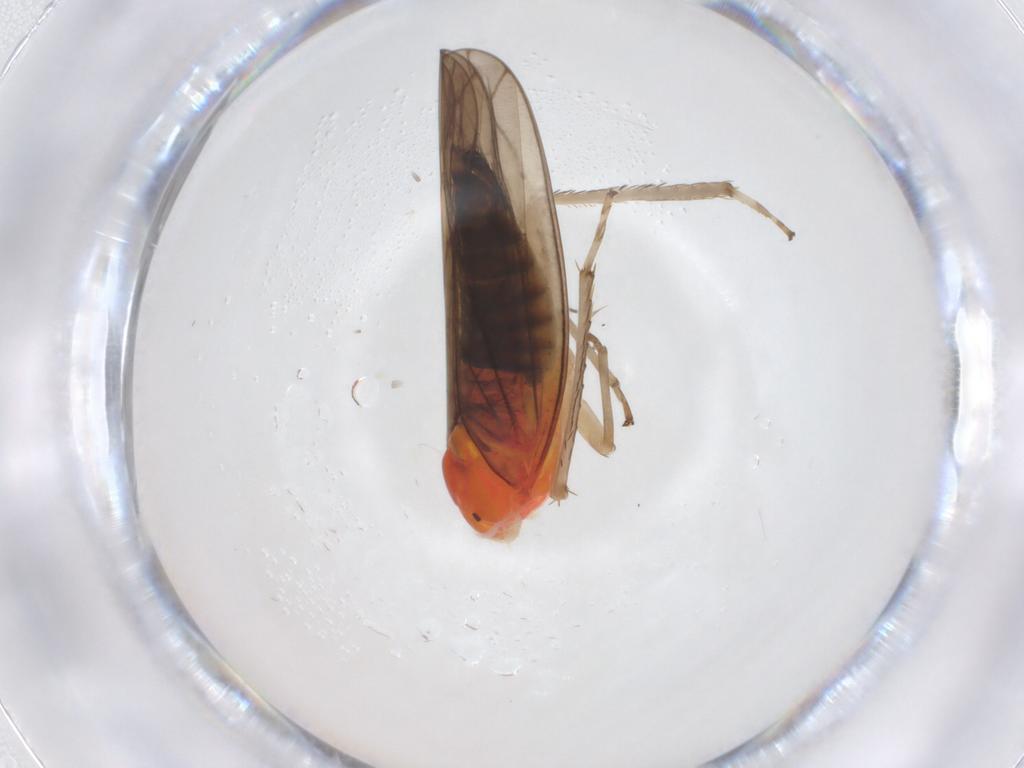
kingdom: Animalia
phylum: Arthropoda
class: Insecta
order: Hemiptera
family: Cicadellidae
